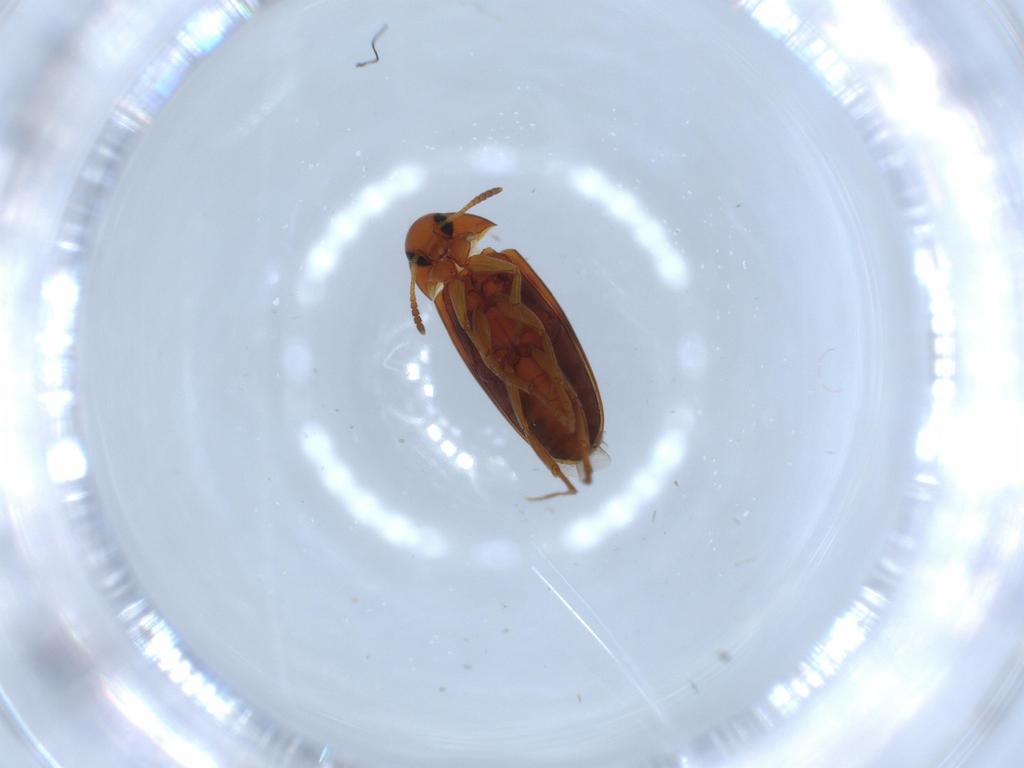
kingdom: Animalia
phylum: Arthropoda
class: Insecta
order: Coleoptera
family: Scraptiidae
